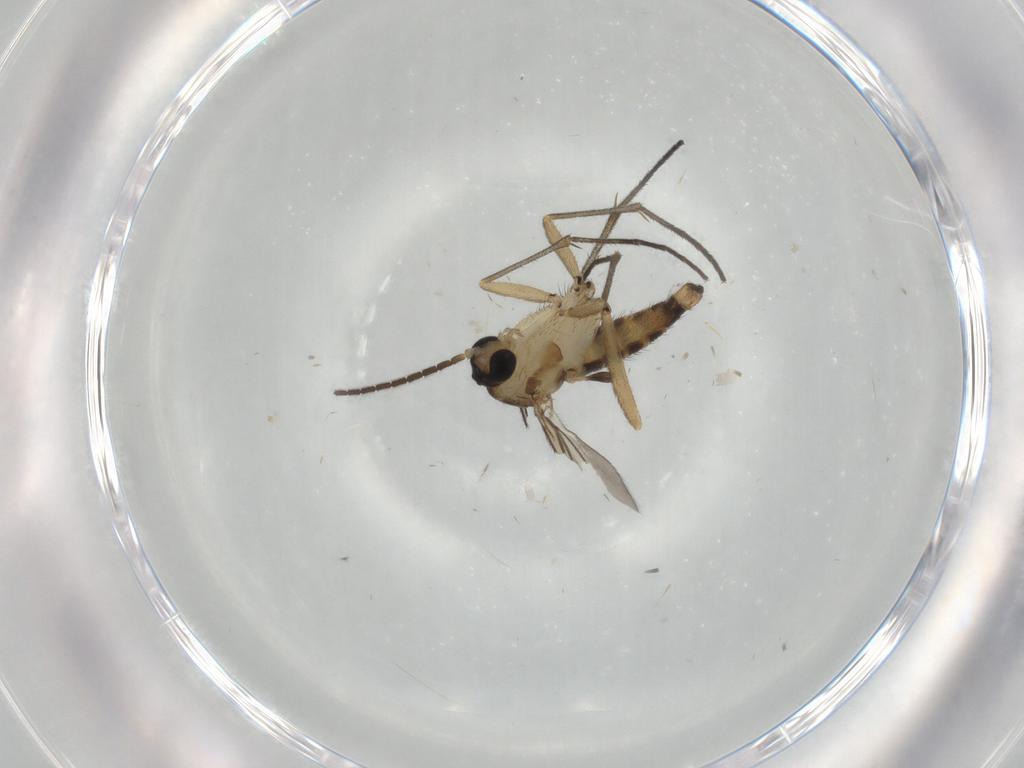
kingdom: Animalia
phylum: Arthropoda
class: Insecta
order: Diptera
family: Sciaridae
